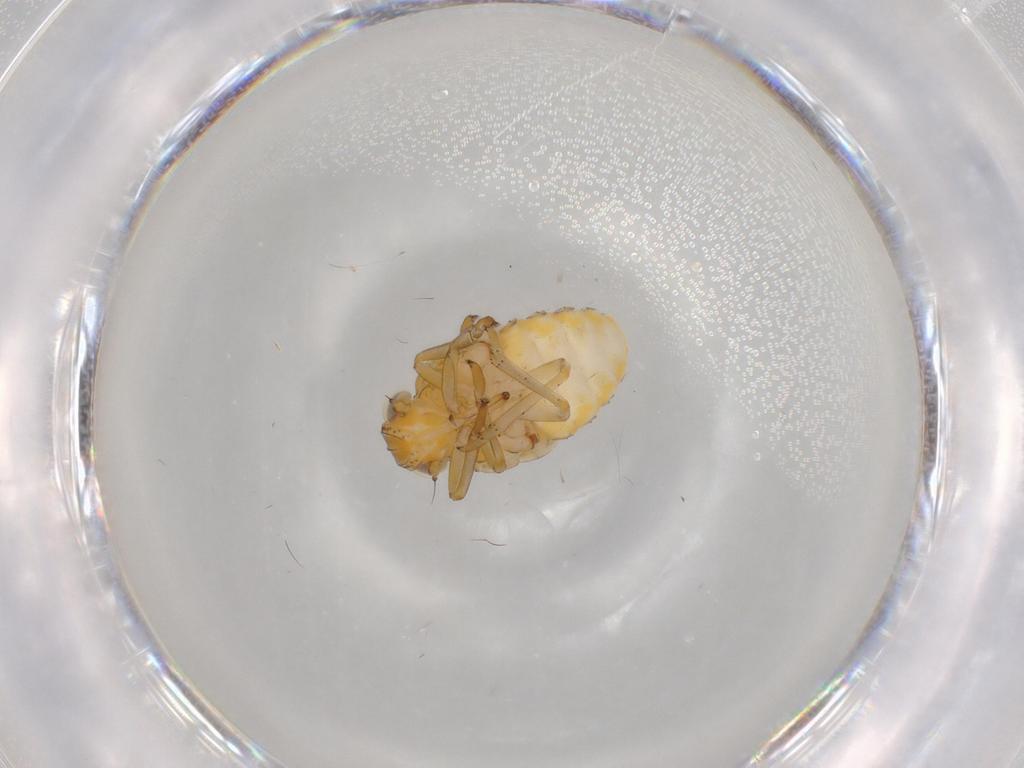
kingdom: Animalia
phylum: Arthropoda
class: Insecta
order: Hemiptera
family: Issidae
